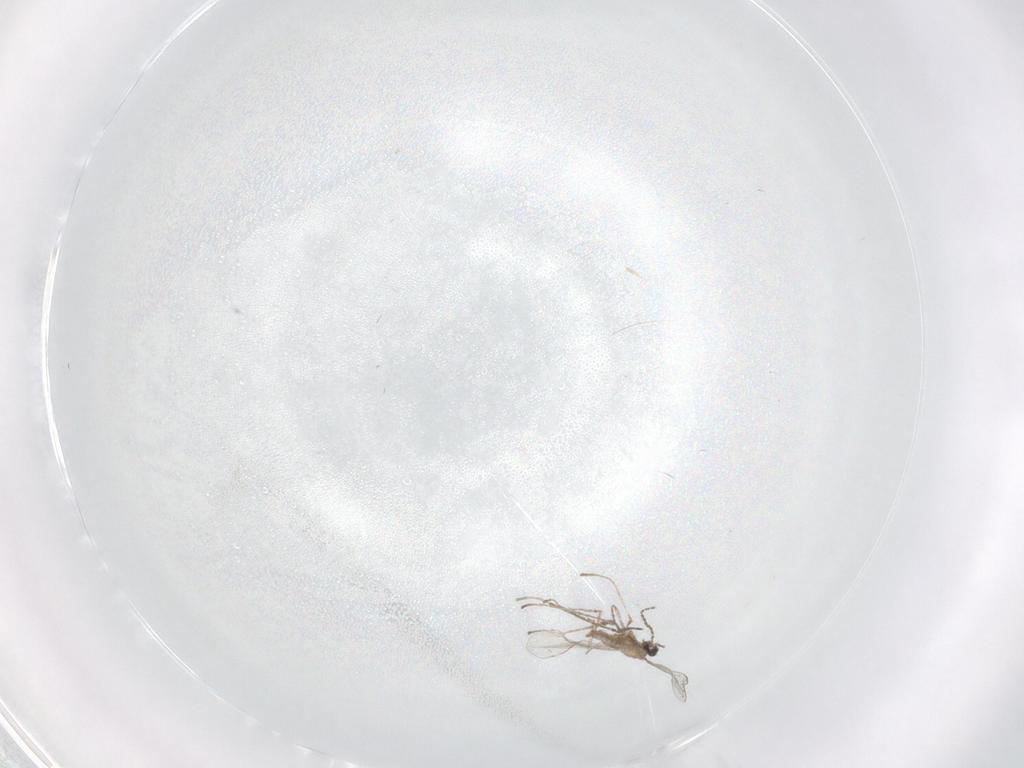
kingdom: Animalia
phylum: Arthropoda
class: Insecta
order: Diptera
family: Cecidomyiidae
